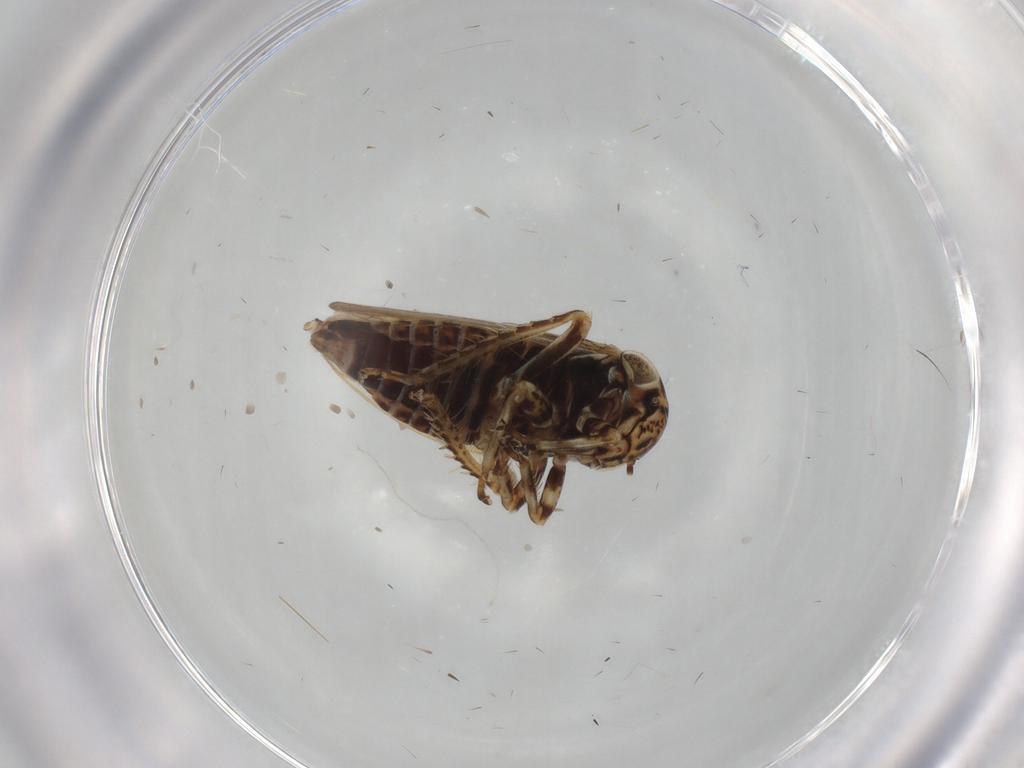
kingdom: Animalia
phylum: Arthropoda
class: Insecta
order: Hemiptera
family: Cicadellidae
